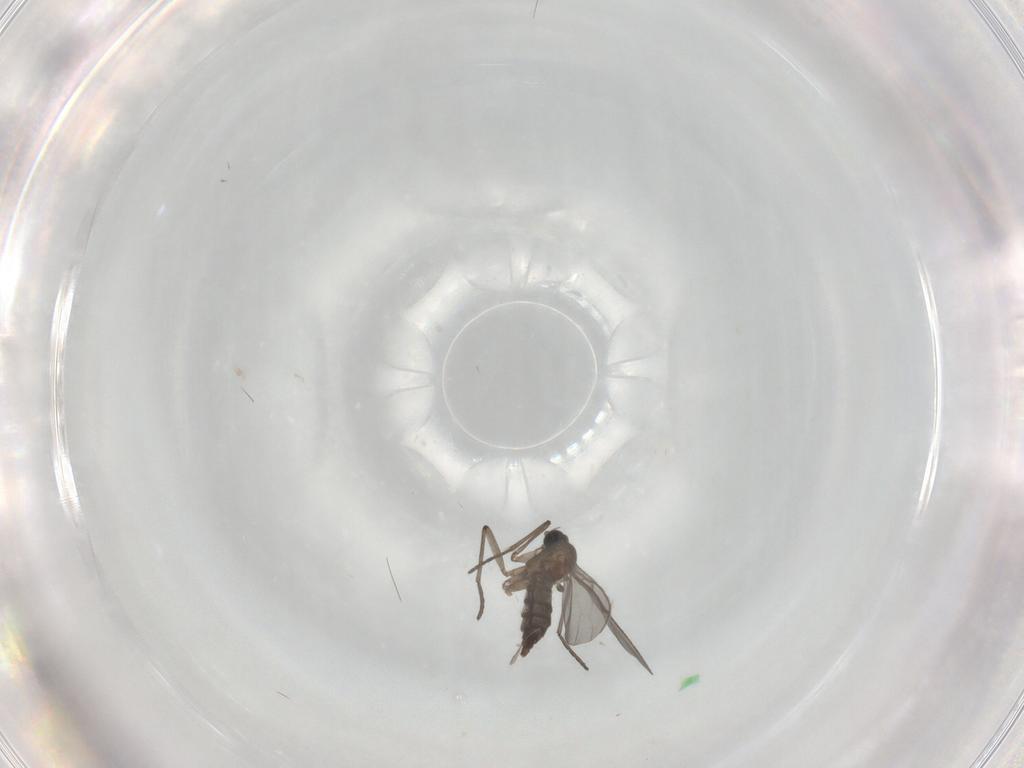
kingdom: Animalia
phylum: Arthropoda
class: Insecta
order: Diptera
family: Sciaridae
